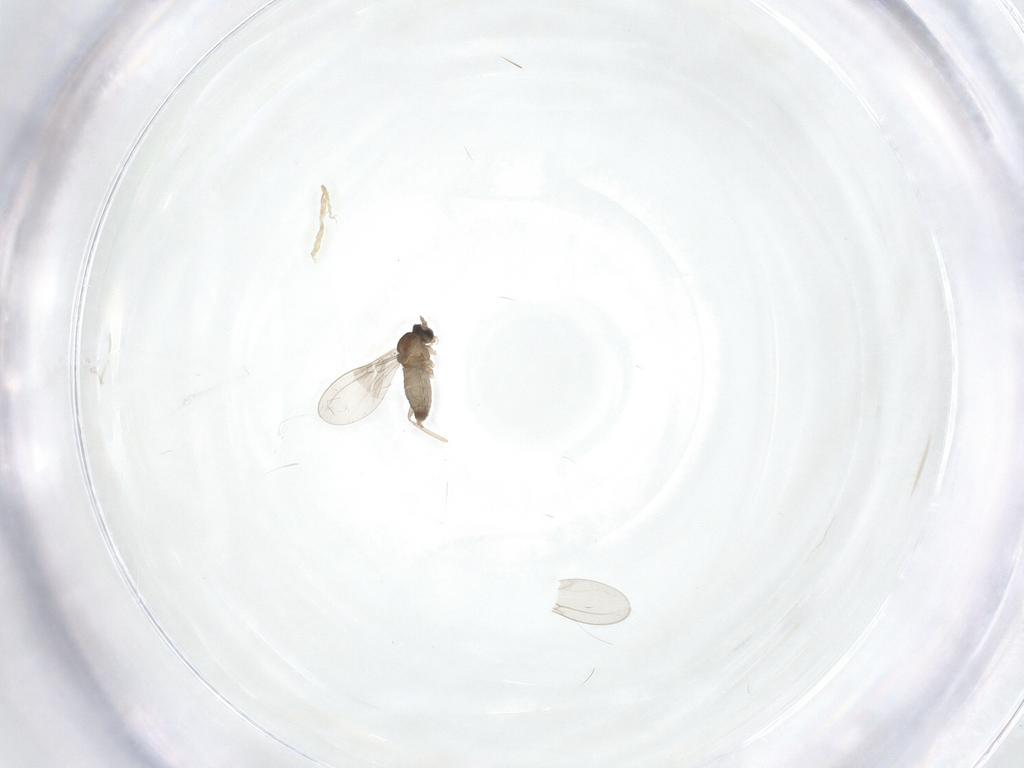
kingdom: Animalia
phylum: Arthropoda
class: Insecta
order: Diptera
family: Cecidomyiidae
